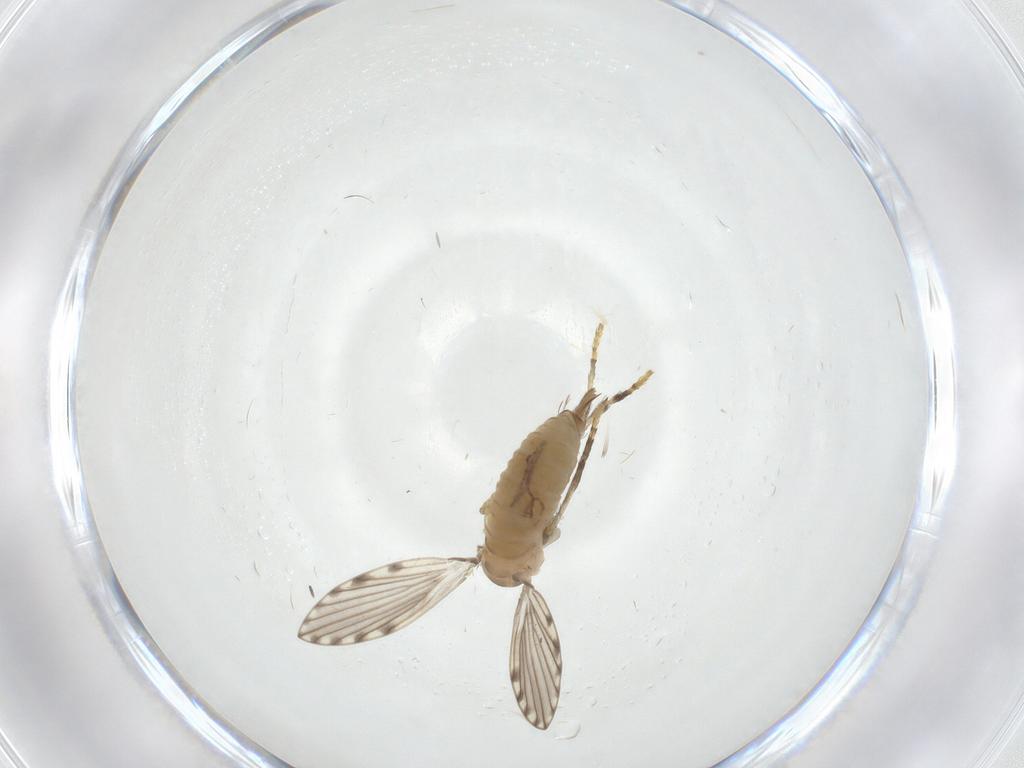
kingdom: Animalia
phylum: Arthropoda
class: Insecta
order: Diptera
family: Psychodidae
